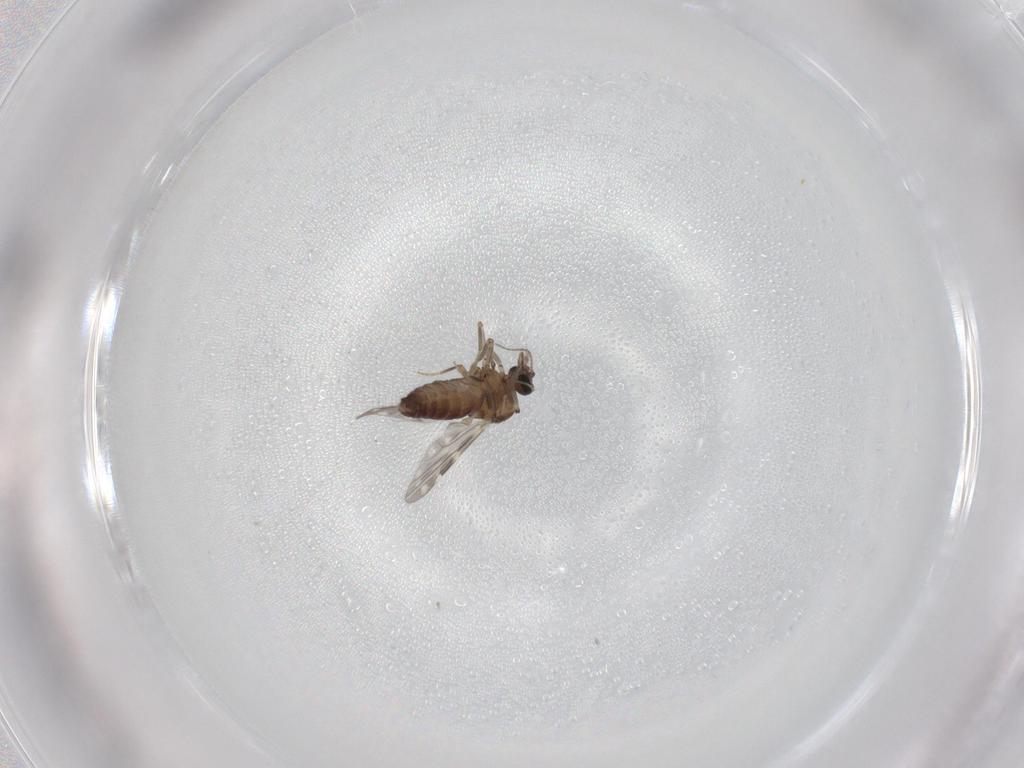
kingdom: Animalia
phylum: Arthropoda
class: Insecta
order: Diptera
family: Ceratopogonidae
